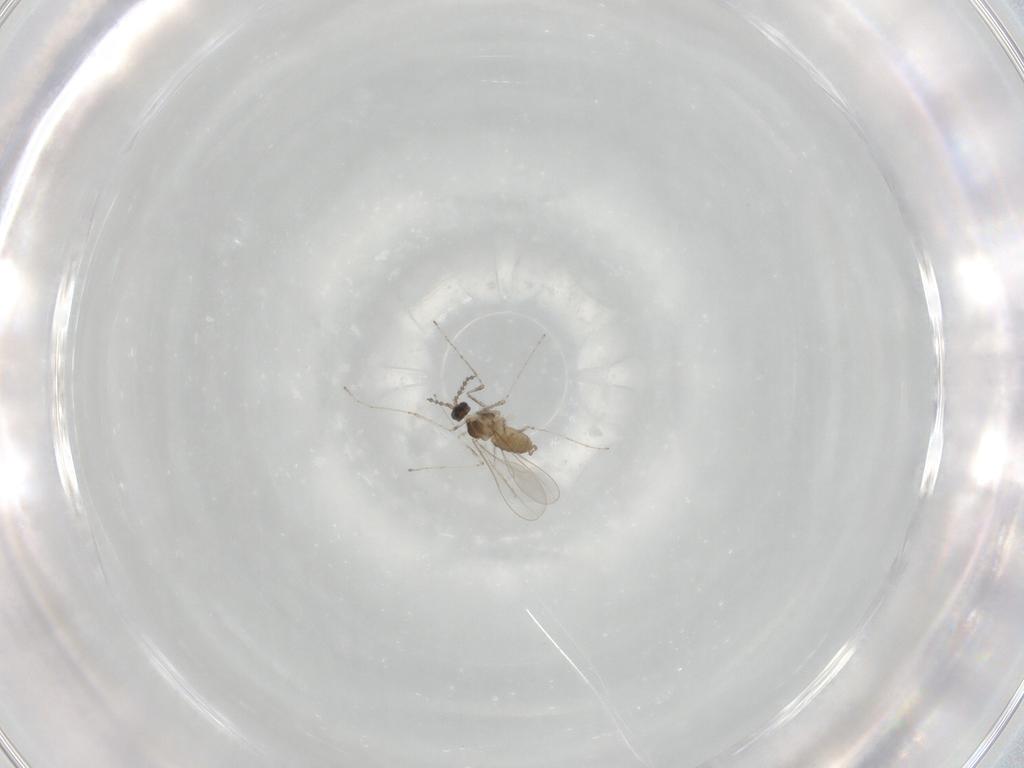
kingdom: Animalia
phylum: Arthropoda
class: Insecta
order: Diptera
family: Cecidomyiidae
